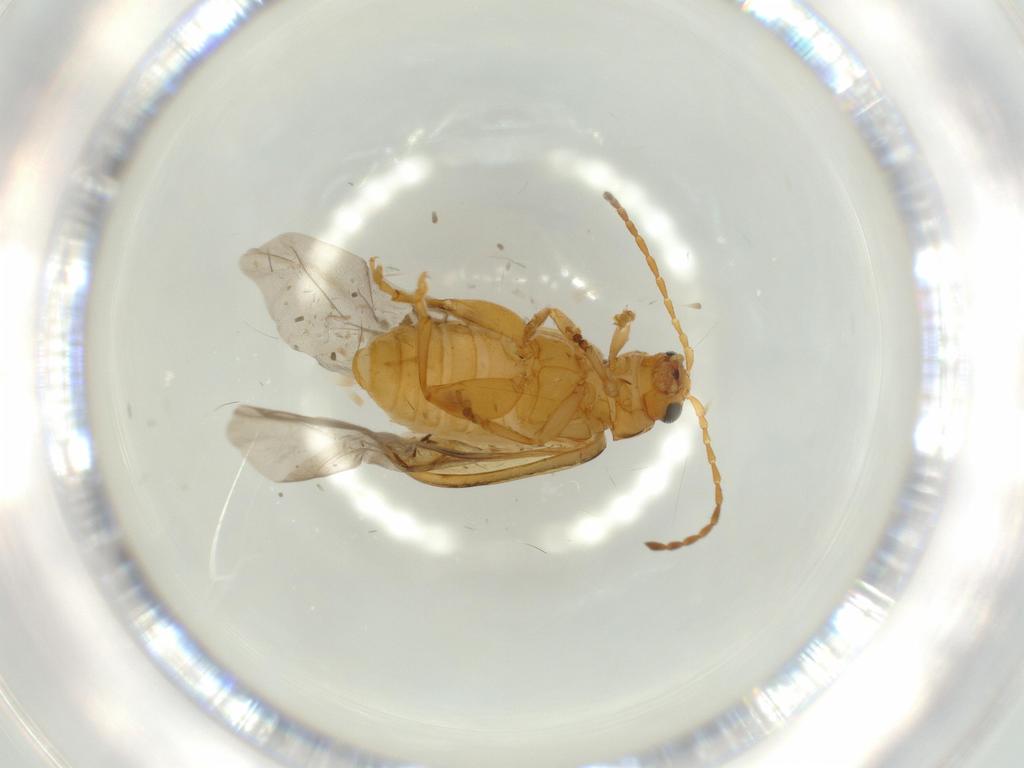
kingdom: Animalia
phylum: Arthropoda
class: Insecta
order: Coleoptera
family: Chrysomelidae
